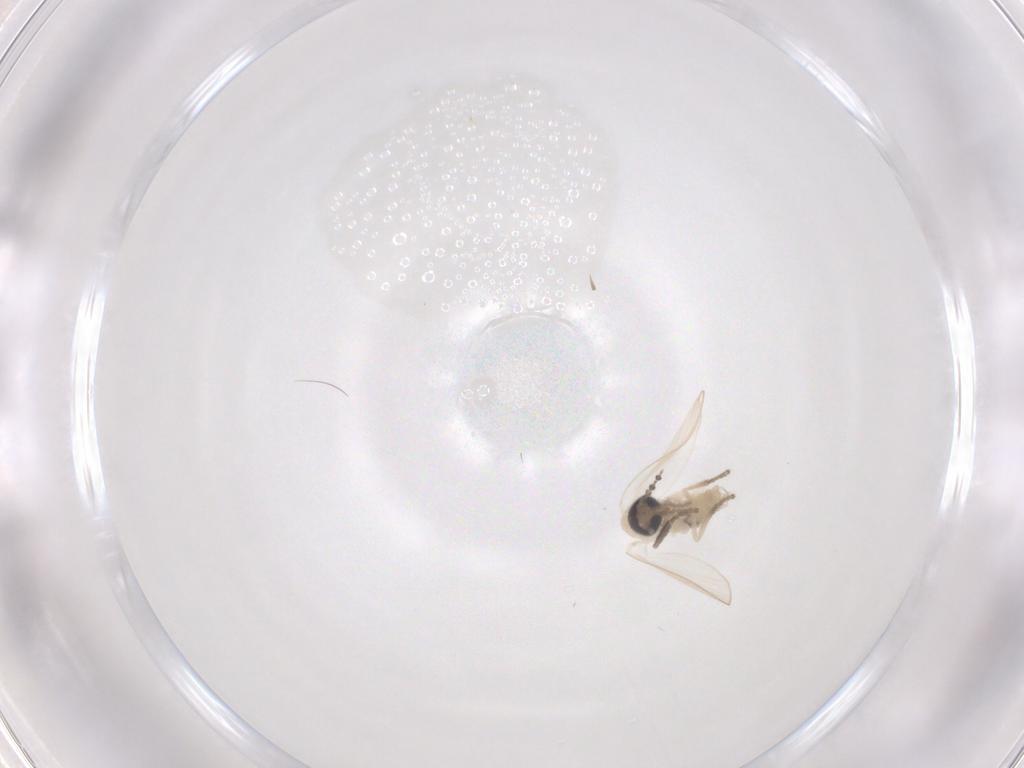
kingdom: Animalia
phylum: Arthropoda
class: Insecta
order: Diptera
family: Psychodidae
